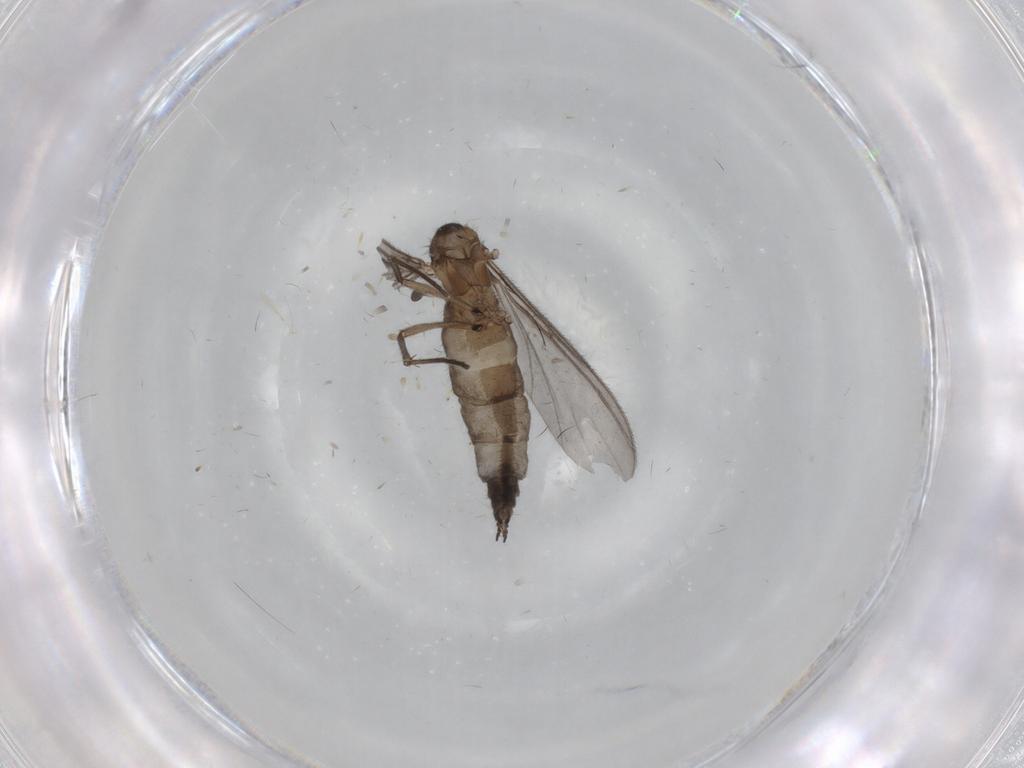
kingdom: Animalia
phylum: Arthropoda
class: Insecta
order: Diptera
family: Sciaridae
